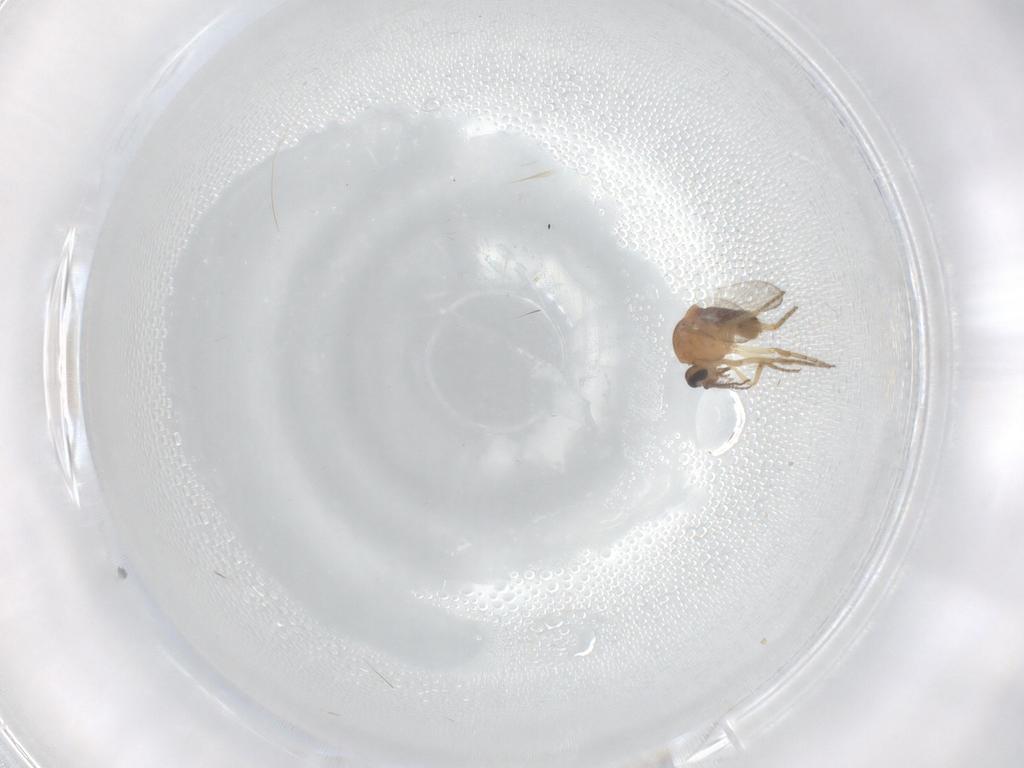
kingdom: Animalia
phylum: Arthropoda
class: Insecta
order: Diptera
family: Ceratopogonidae
